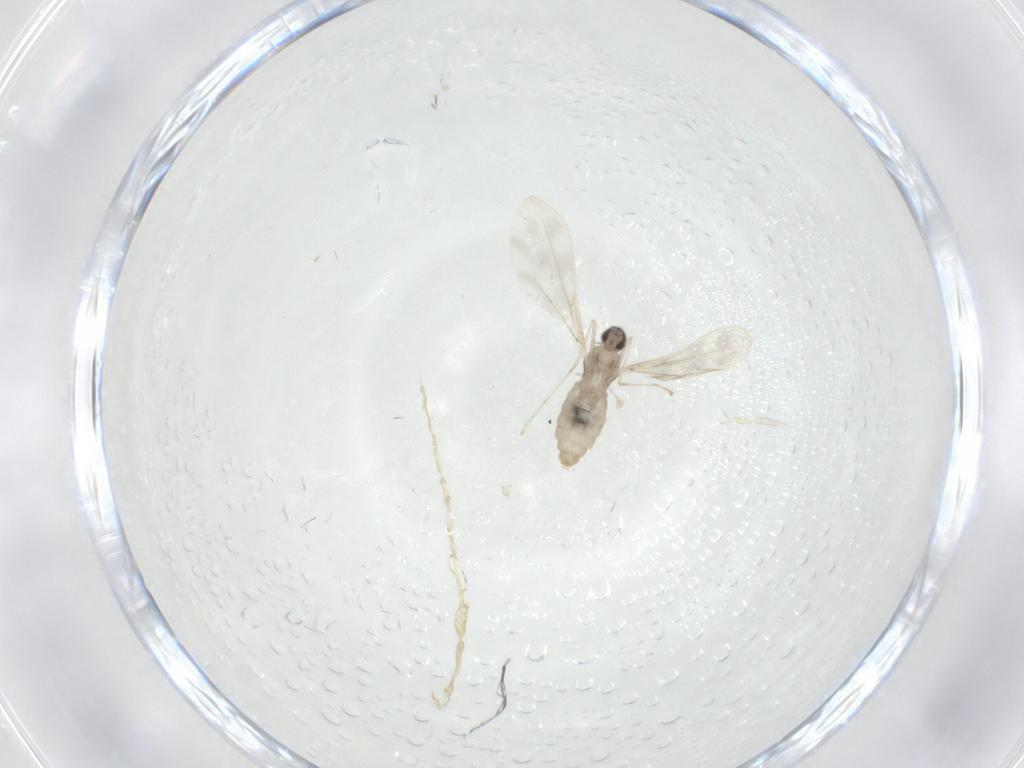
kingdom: Animalia
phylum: Arthropoda
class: Insecta
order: Diptera
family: Cecidomyiidae
